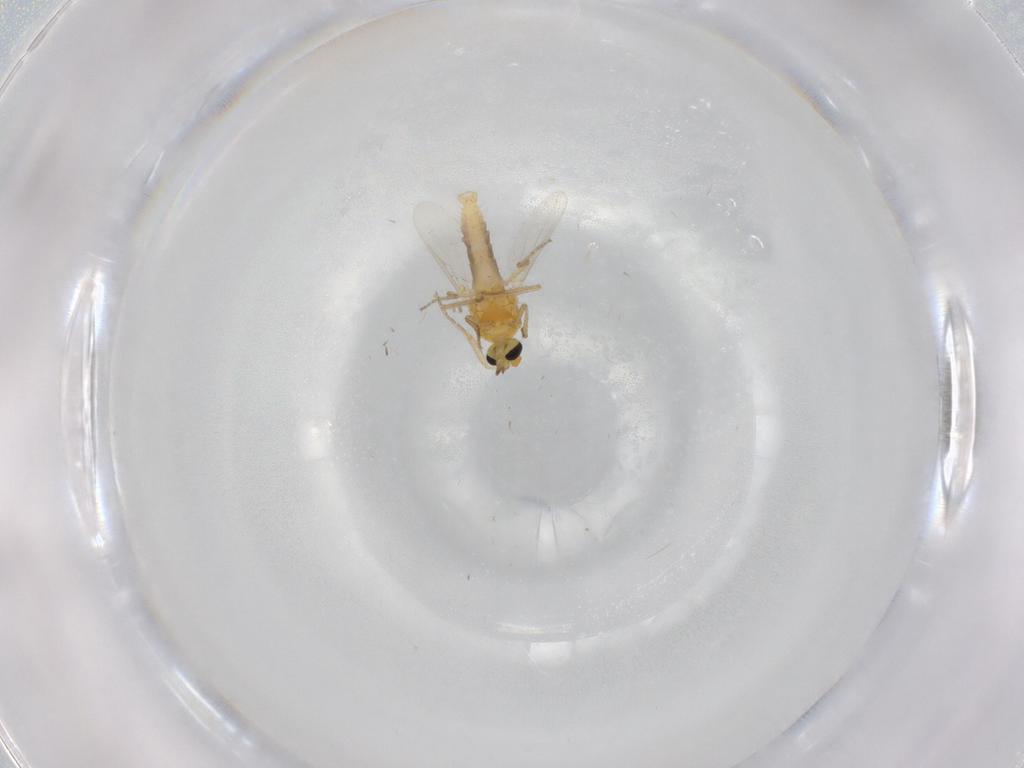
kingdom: Animalia
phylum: Arthropoda
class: Insecta
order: Diptera
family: Ceratopogonidae
